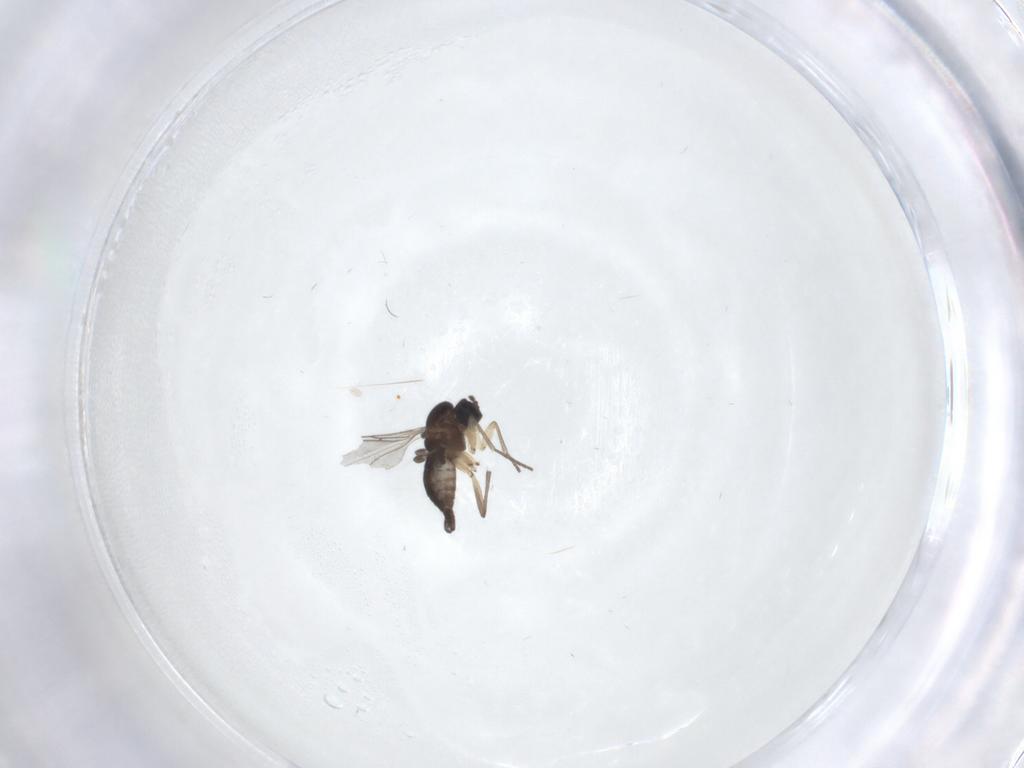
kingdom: Animalia
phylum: Arthropoda
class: Insecta
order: Diptera
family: Sciaridae
